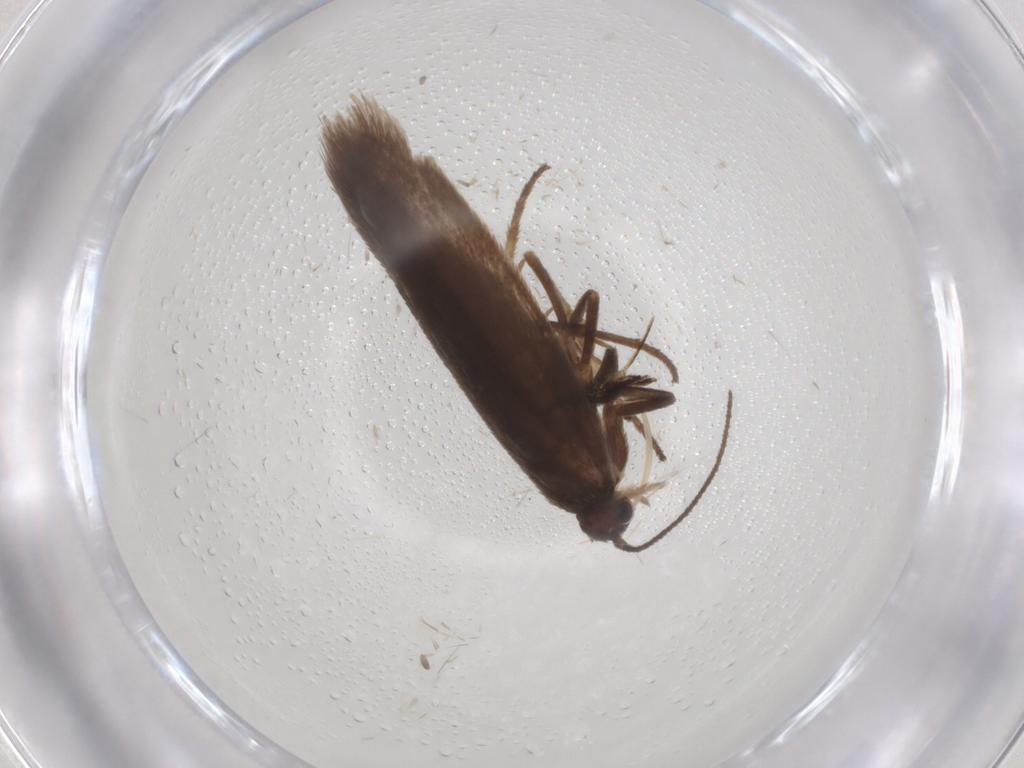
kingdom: Animalia
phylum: Arthropoda
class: Insecta
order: Lepidoptera
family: Limacodidae
